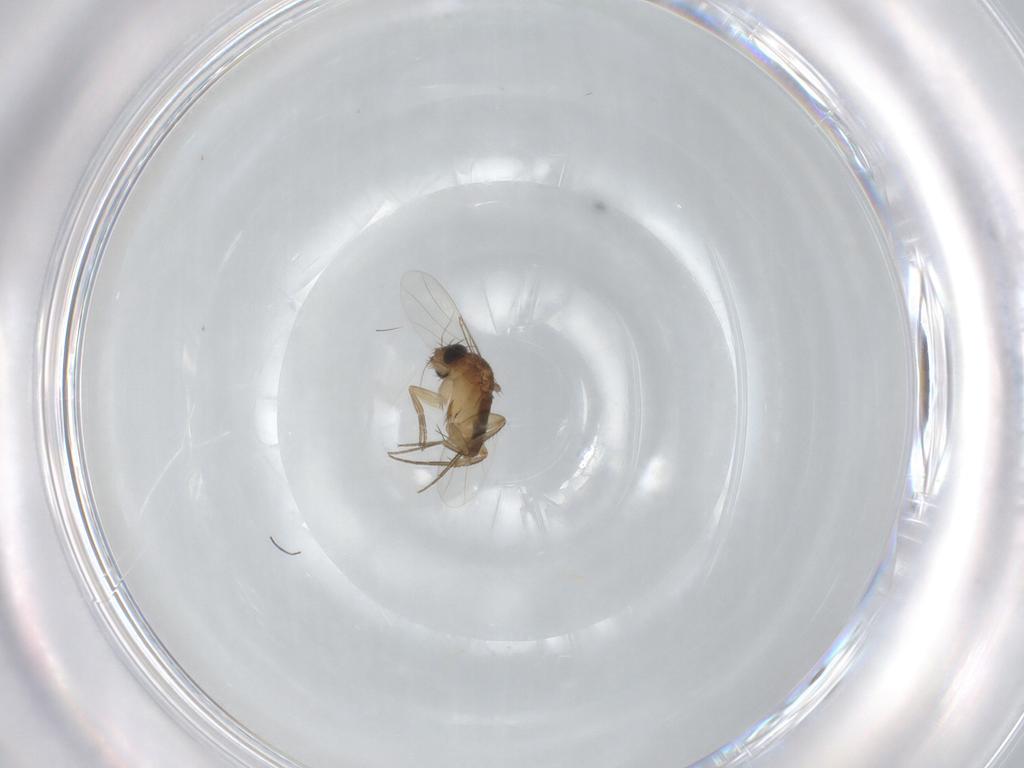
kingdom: Animalia
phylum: Arthropoda
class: Insecta
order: Diptera
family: Phoridae
